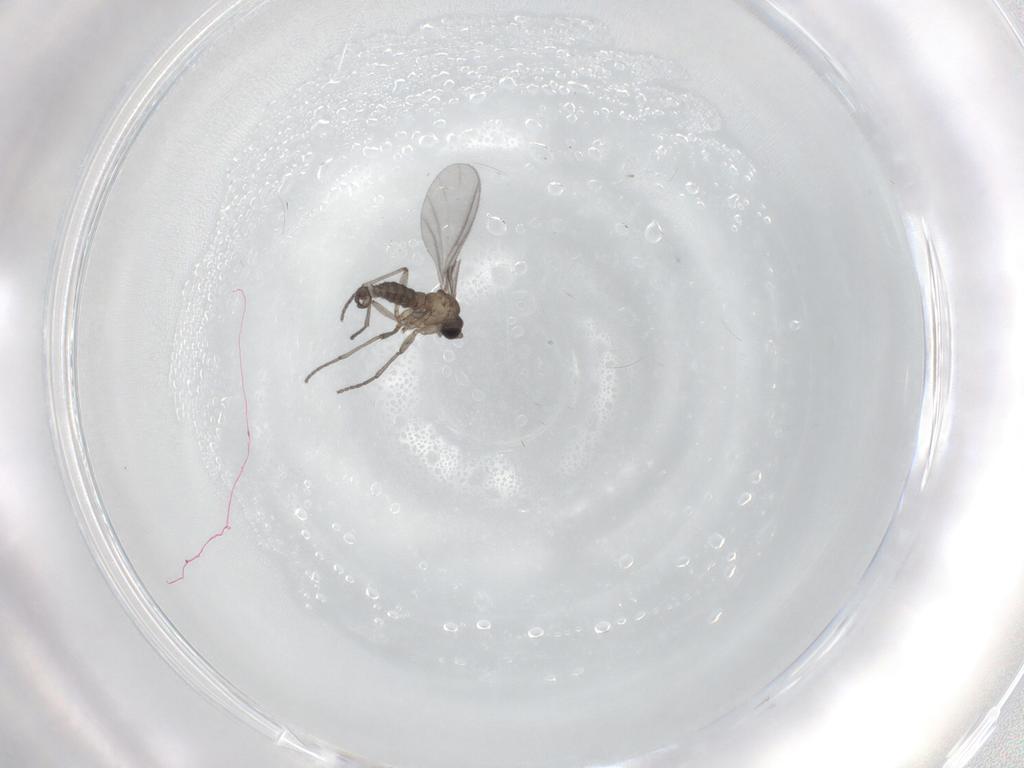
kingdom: Animalia
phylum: Arthropoda
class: Insecta
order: Diptera
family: Sciaridae
